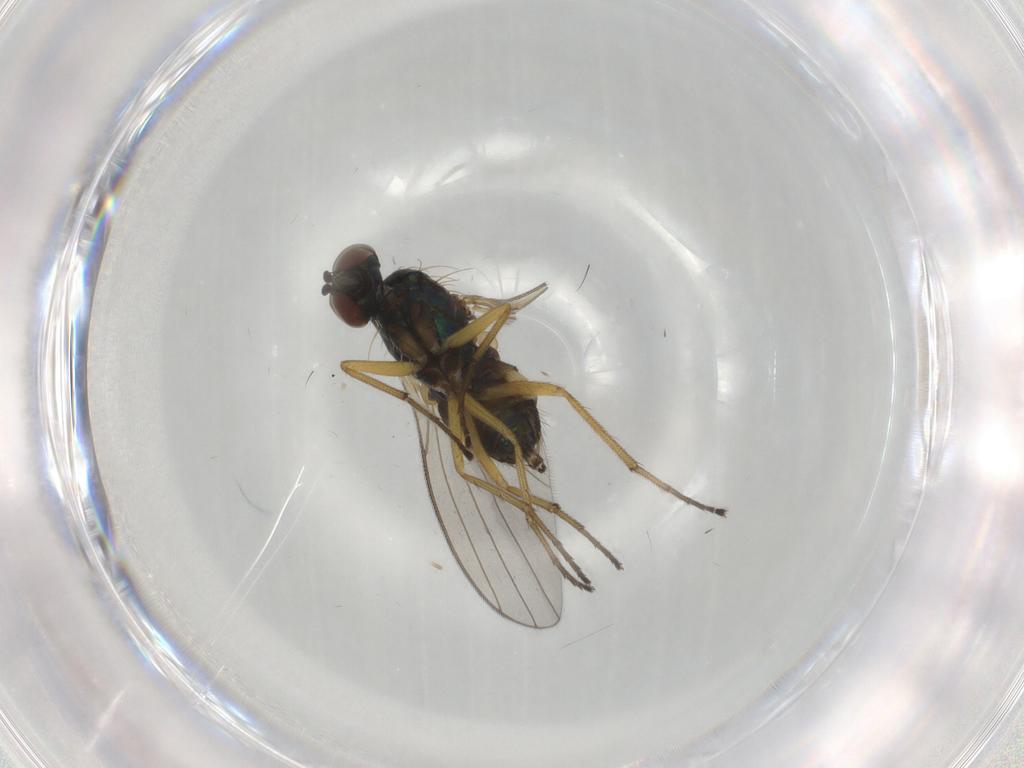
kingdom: Animalia
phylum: Arthropoda
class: Insecta
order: Diptera
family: Dolichopodidae
